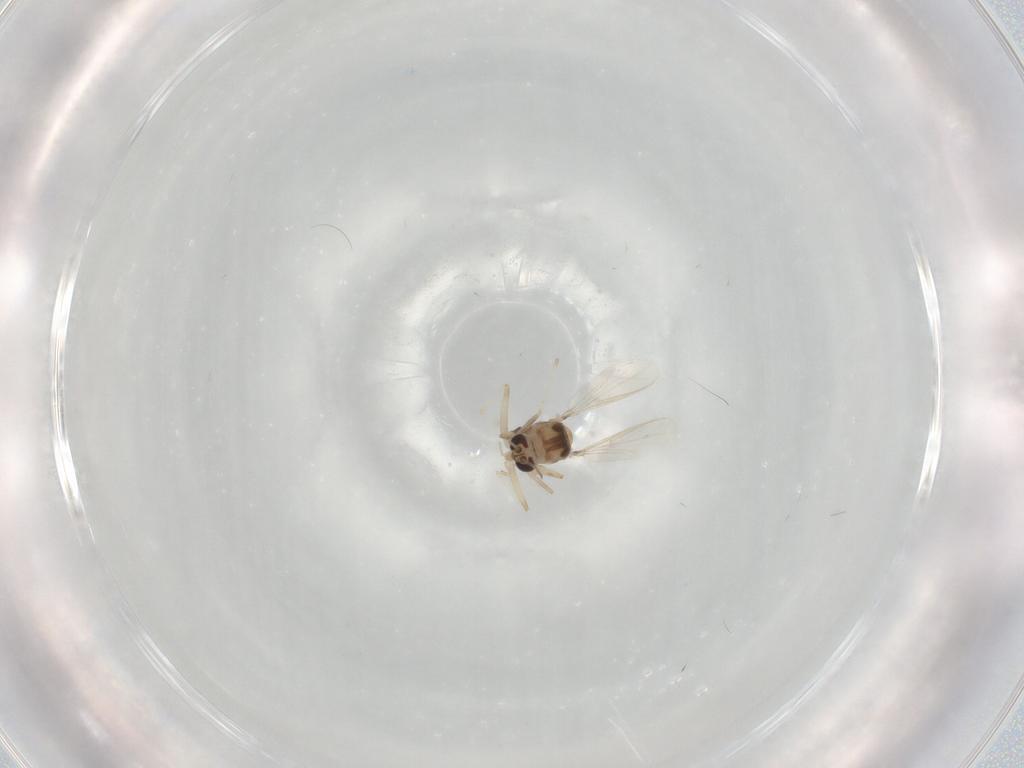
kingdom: Animalia
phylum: Arthropoda
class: Insecta
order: Diptera
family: Chironomidae
